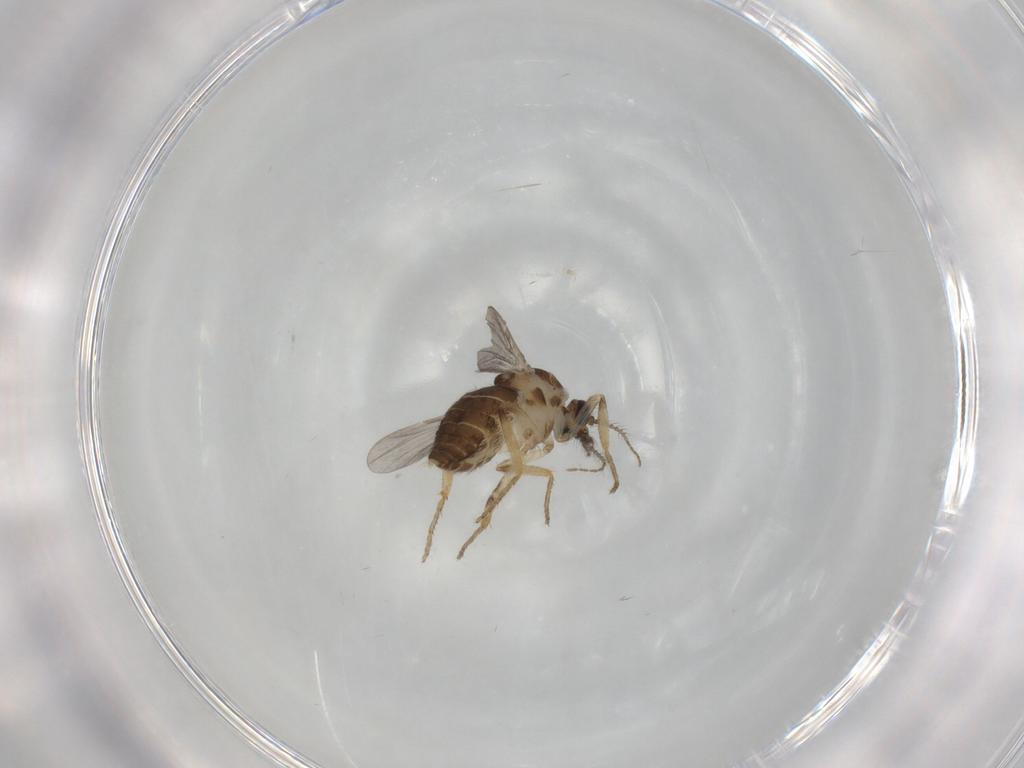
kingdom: Animalia
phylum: Arthropoda
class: Insecta
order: Diptera
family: Ceratopogonidae
